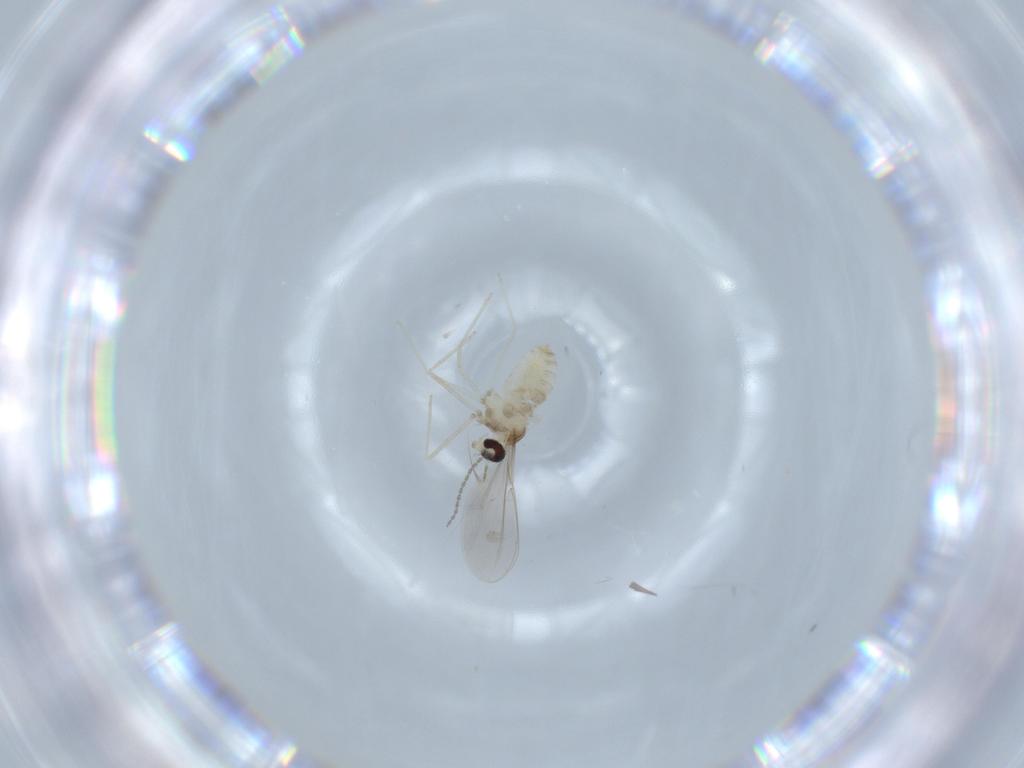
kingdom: Animalia
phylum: Arthropoda
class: Insecta
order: Diptera
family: Cecidomyiidae
